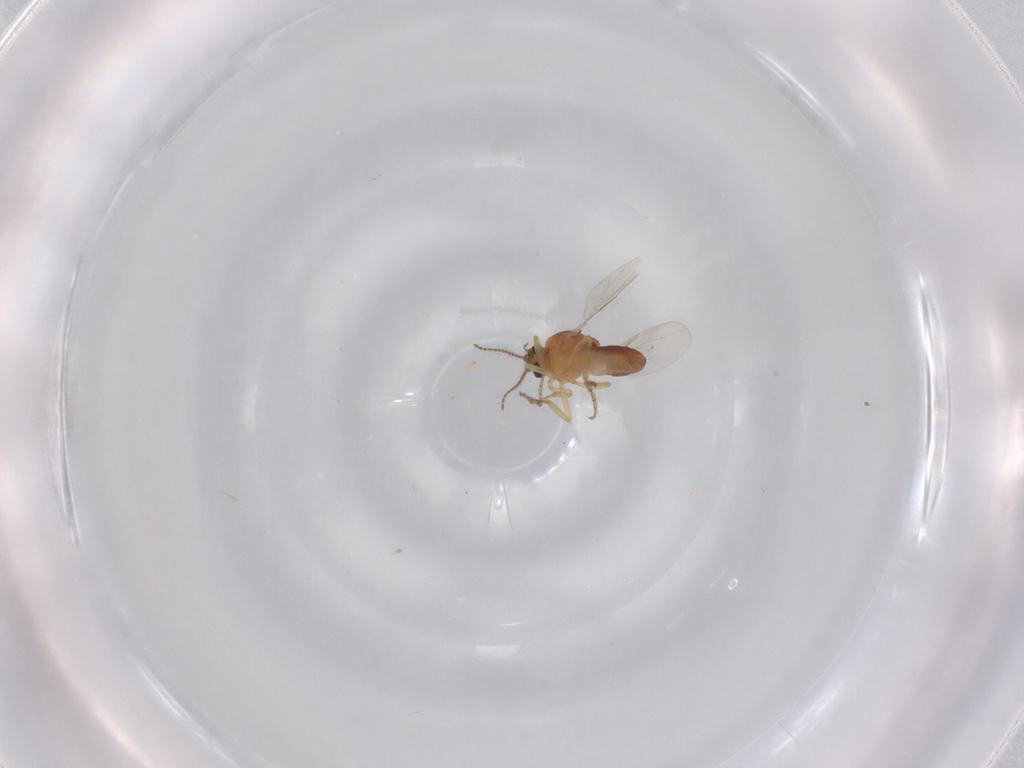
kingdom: Animalia
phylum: Arthropoda
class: Insecta
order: Diptera
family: Ceratopogonidae
